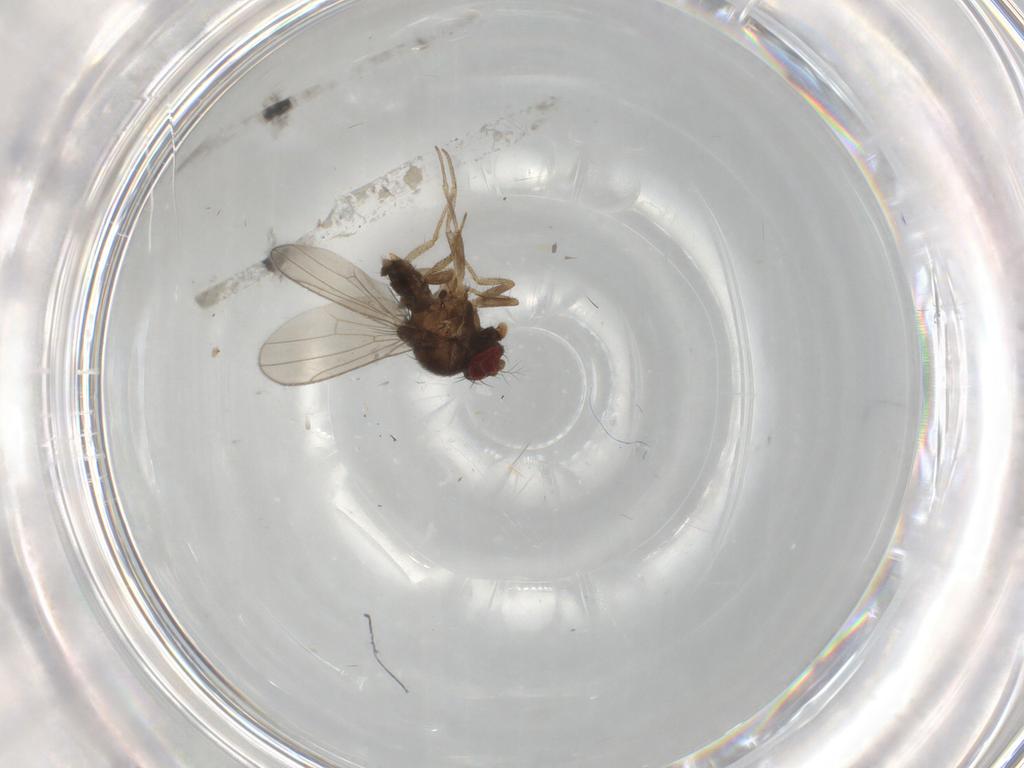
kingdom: Animalia
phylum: Arthropoda
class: Insecta
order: Diptera
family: Drosophilidae
